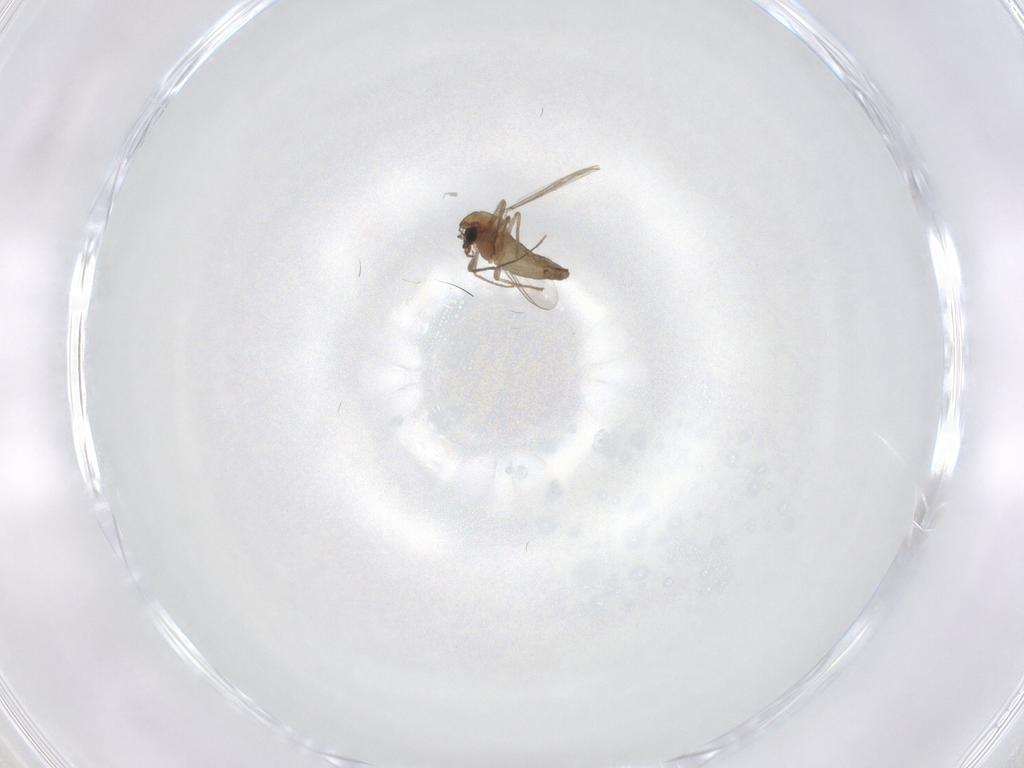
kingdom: Animalia
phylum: Arthropoda
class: Insecta
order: Diptera
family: Chironomidae
